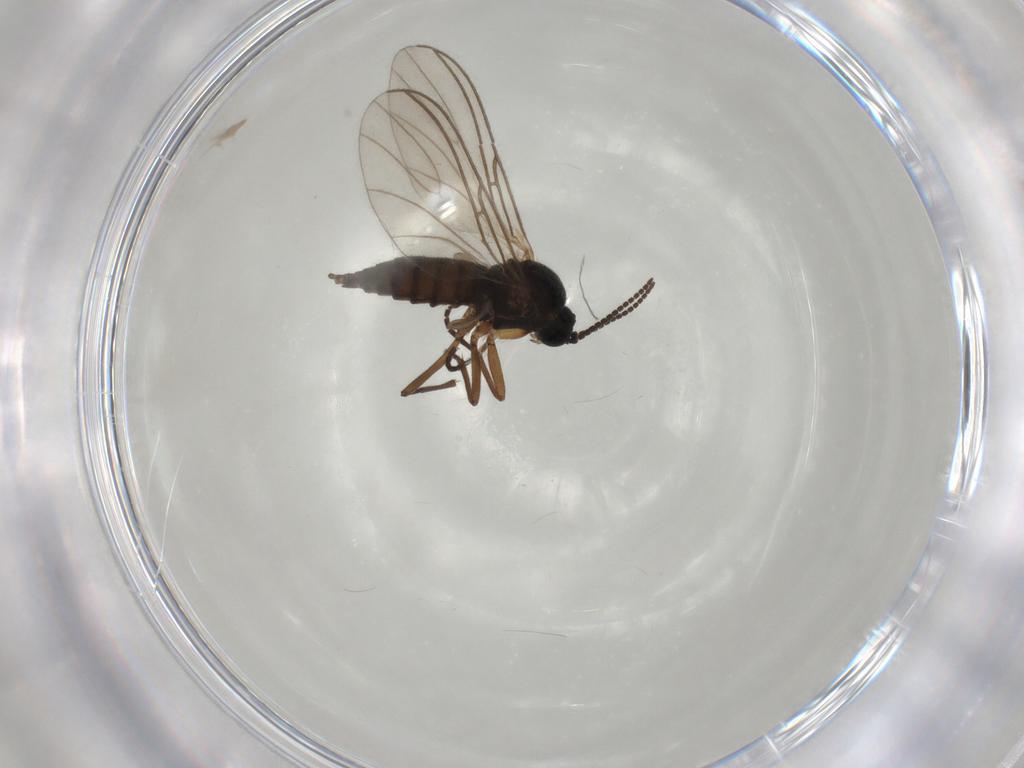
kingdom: Animalia
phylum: Arthropoda
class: Insecta
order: Diptera
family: Sciaridae
